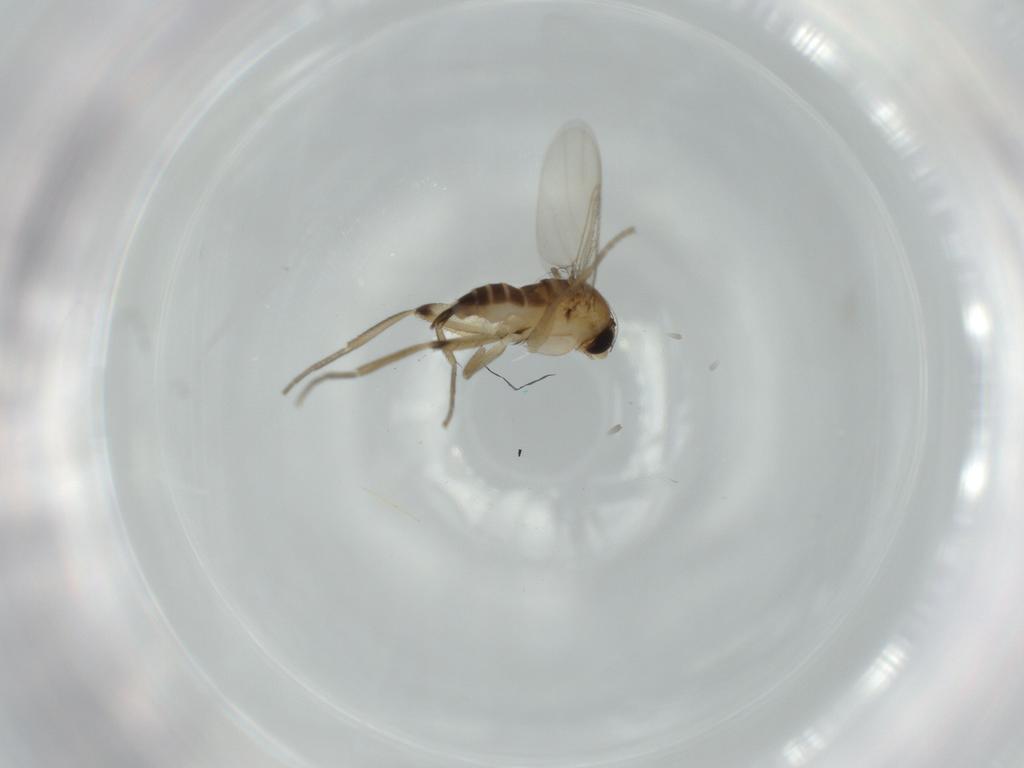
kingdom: Animalia
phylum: Arthropoda
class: Insecta
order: Diptera
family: Phoridae
